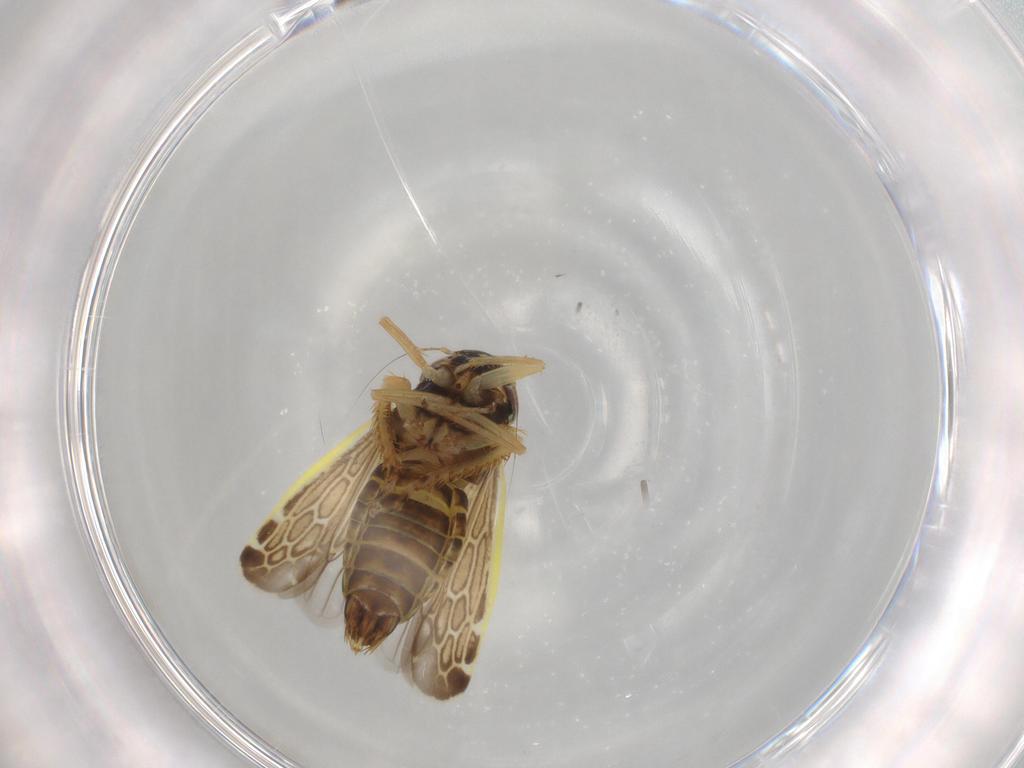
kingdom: Animalia
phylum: Arthropoda
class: Insecta
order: Hemiptera
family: Cicadellidae
